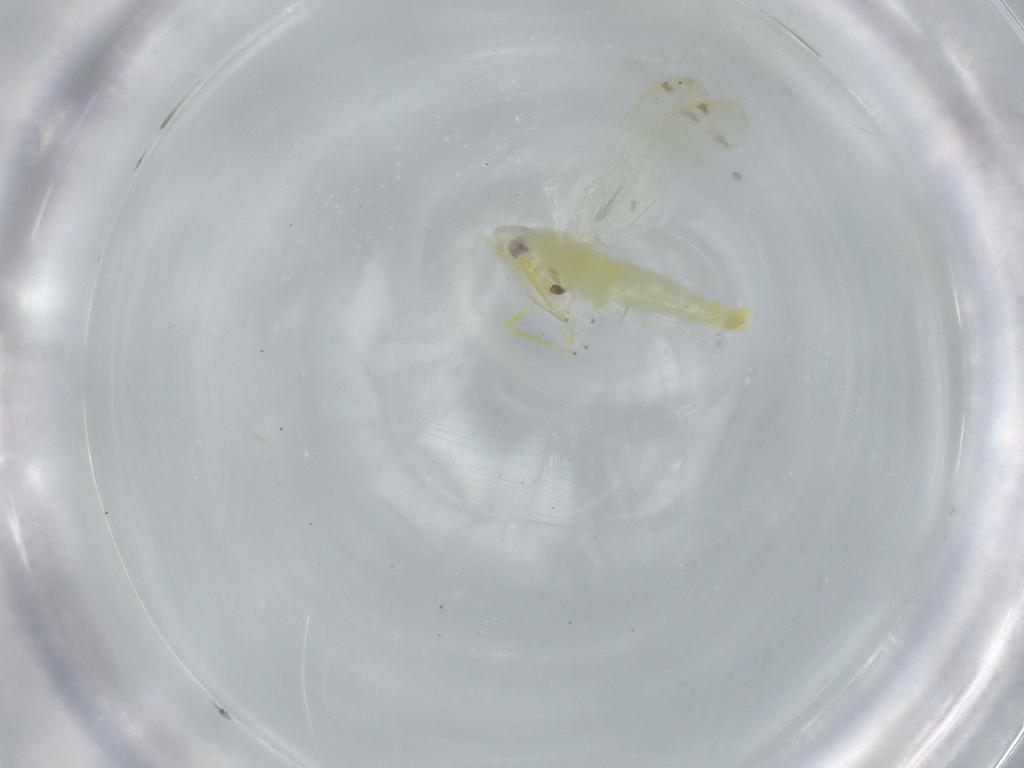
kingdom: Animalia
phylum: Arthropoda
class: Insecta
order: Hemiptera
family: Cicadellidae
